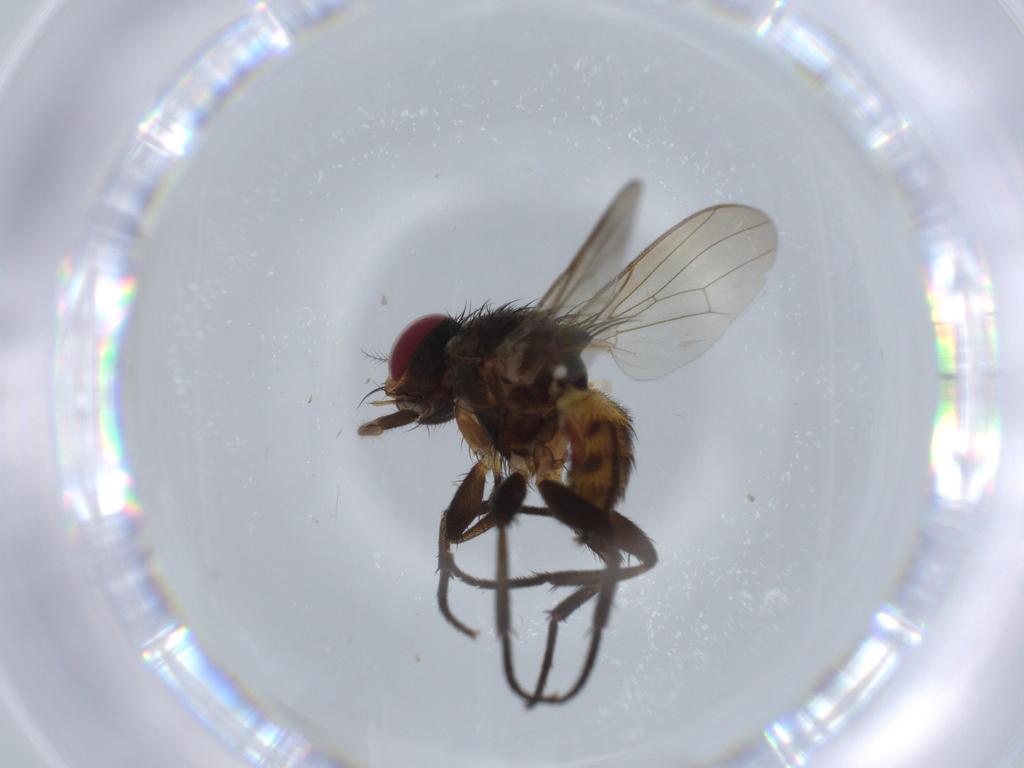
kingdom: Animalia
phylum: Arthropoda
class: Insecta
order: Diptera
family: Anthomyiidae
